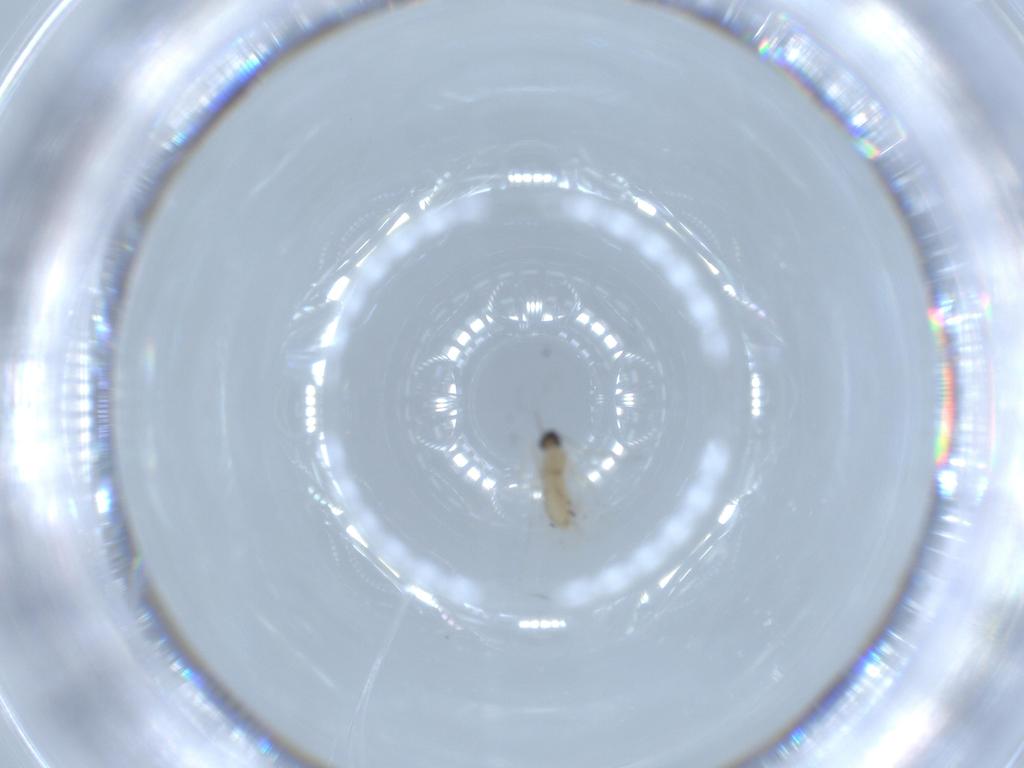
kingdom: Animalia
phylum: Arthropoda
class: Insecta
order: Diptera
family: Cecidomyiidae
